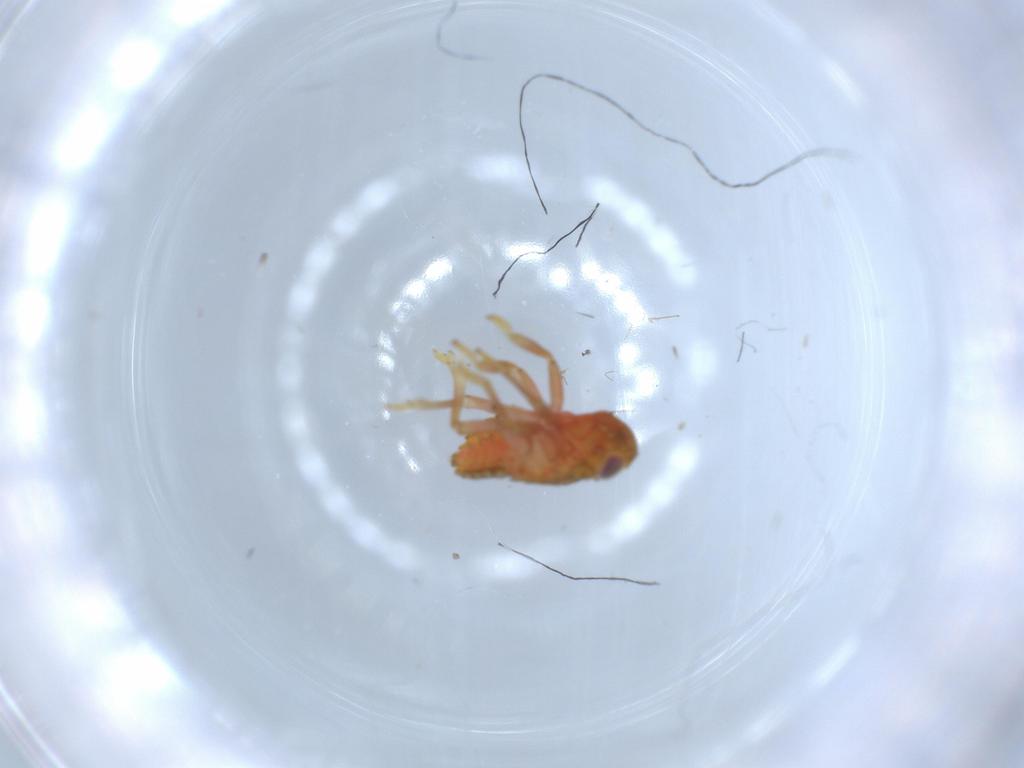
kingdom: Animalia
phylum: Arthropoda
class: Insecta
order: Hemiptera
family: Issidae
